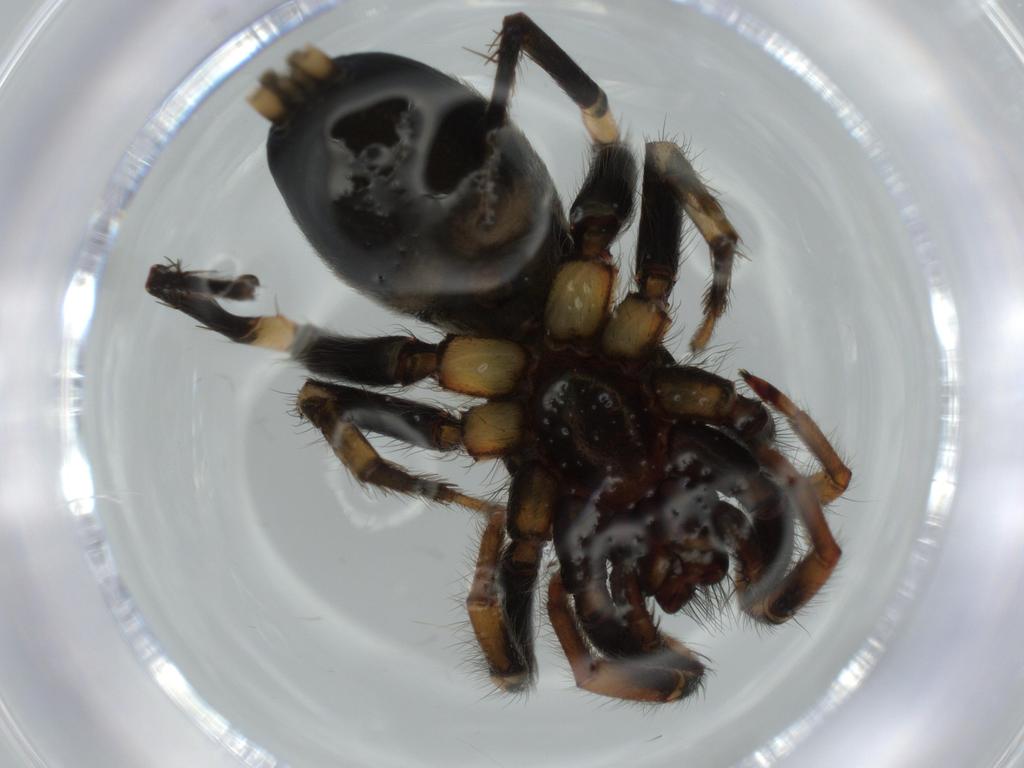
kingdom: Animalia
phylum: Arthropoda
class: Arachnida
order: Araneae
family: Gnaphosidae
